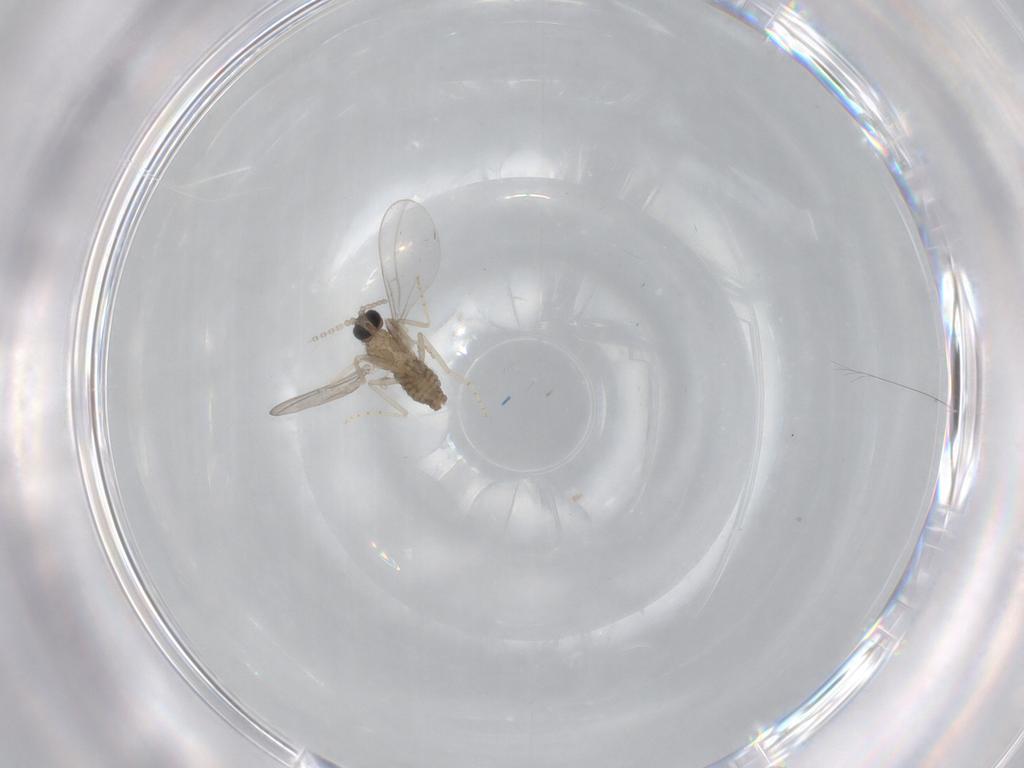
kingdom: Animalia
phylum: Arthropoda
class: Insecta
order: Diptera
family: Cecidomyiidae
